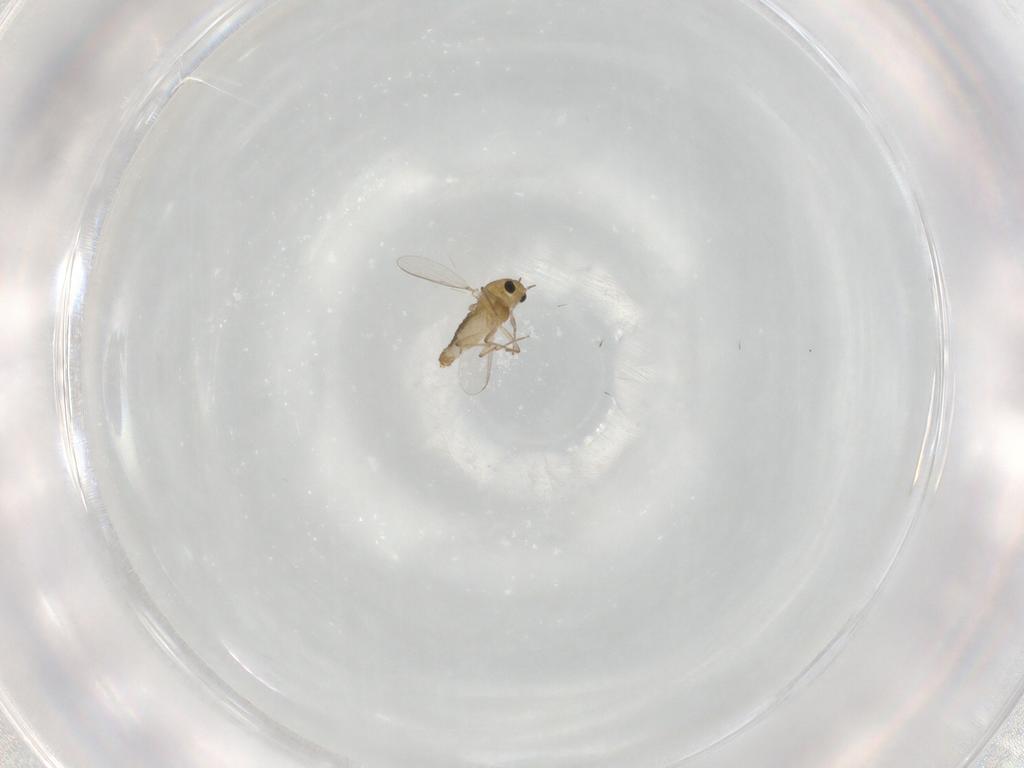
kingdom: Animalia
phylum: Arthropoda
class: Insecta
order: Diptera
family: Chironomidae
